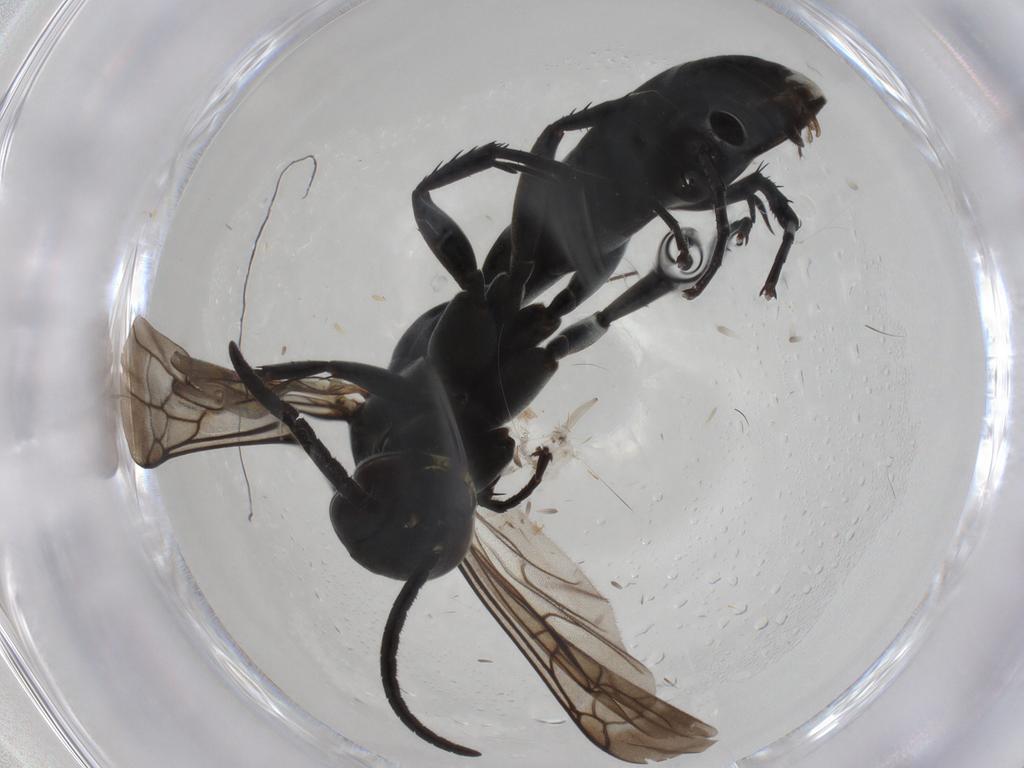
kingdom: Animalia
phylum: Arthropoda
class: Insecta
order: Hymenoptera
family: Pompilidae
